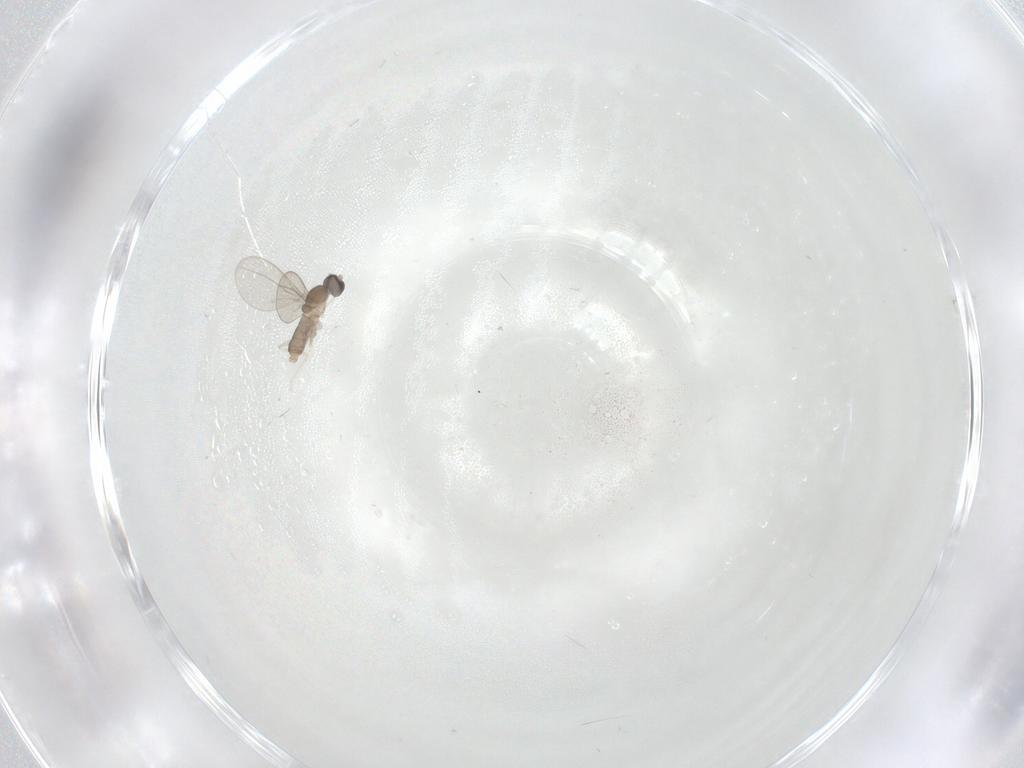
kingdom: Animalia
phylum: Arthropoda
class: Insecta
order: Diptera
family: Cecidomyiidae
